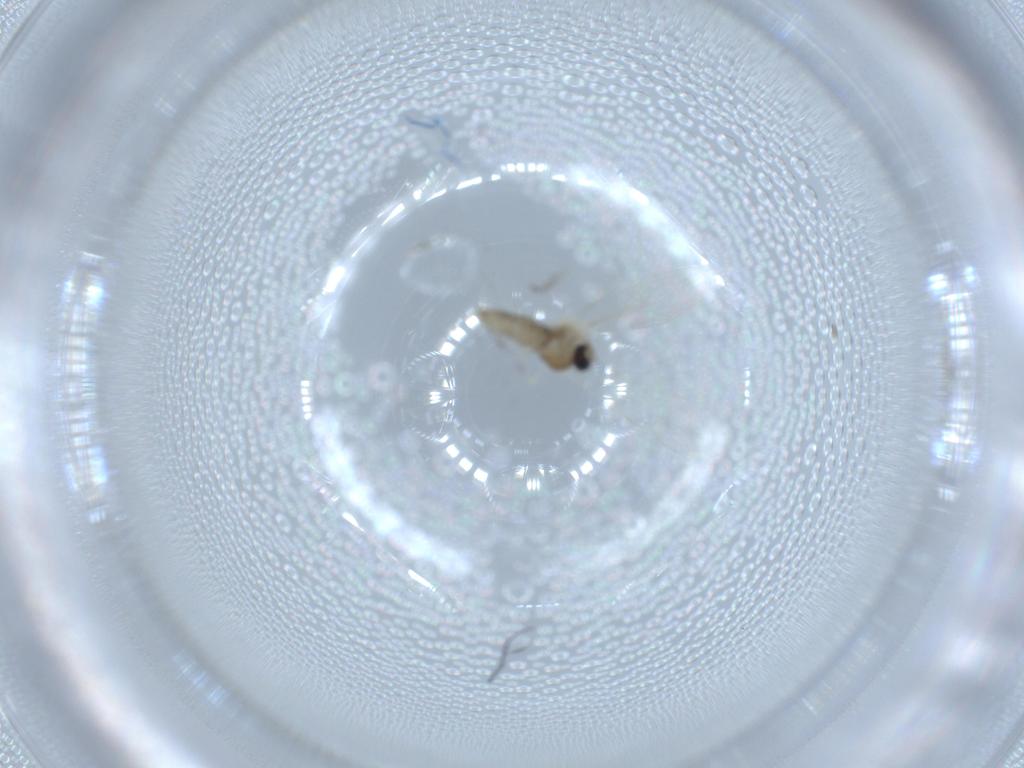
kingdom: Animalia
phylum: Arthropoda
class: Insecta
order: Diptera
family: Cecidomyiidae
